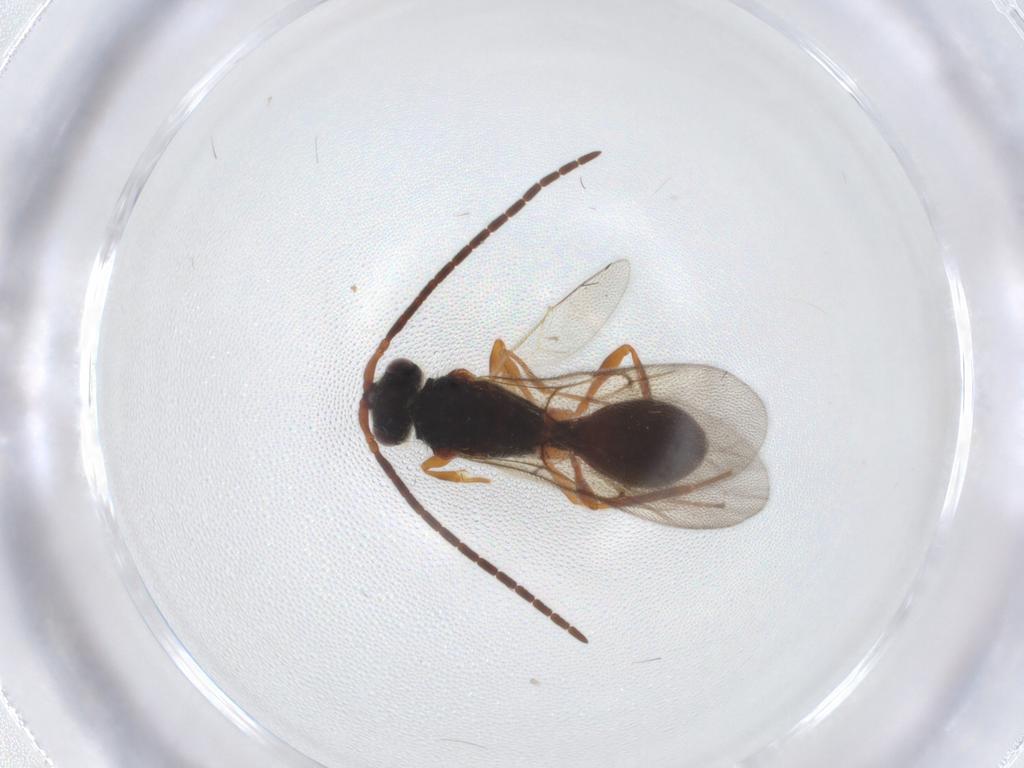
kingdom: Animalia
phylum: Arthropoda
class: Insecta
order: Hymenoptera
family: Diapriidae
